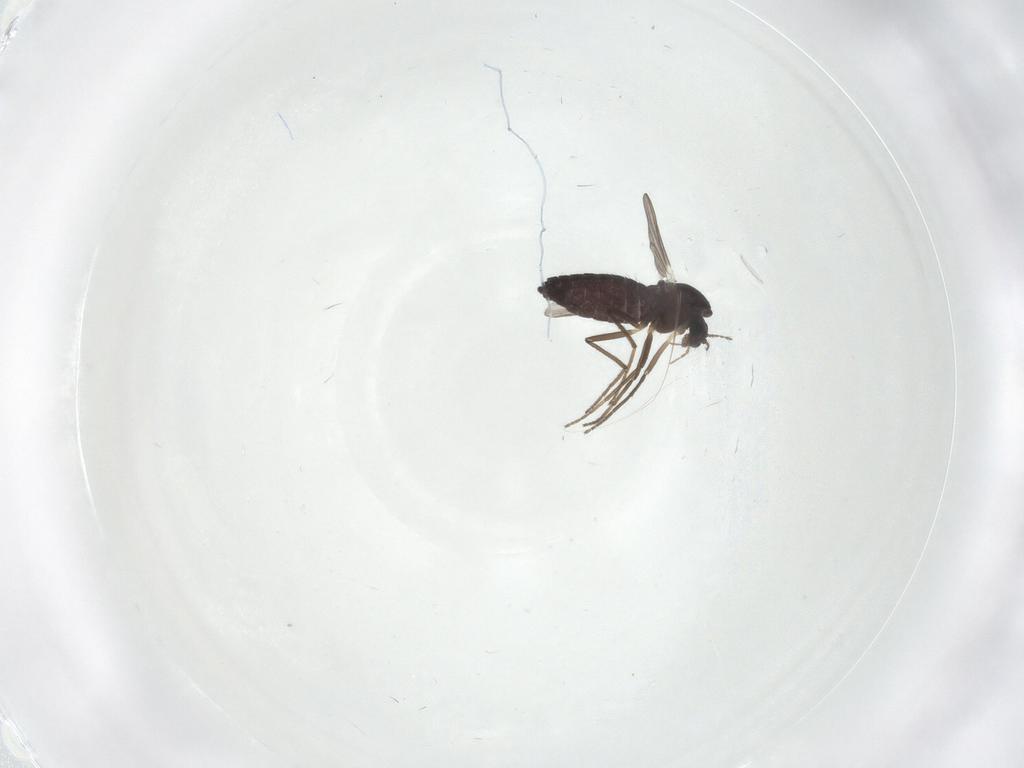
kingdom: Animalia
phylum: Arthropoda
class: Insecta
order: Diptera
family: Chironomidae
